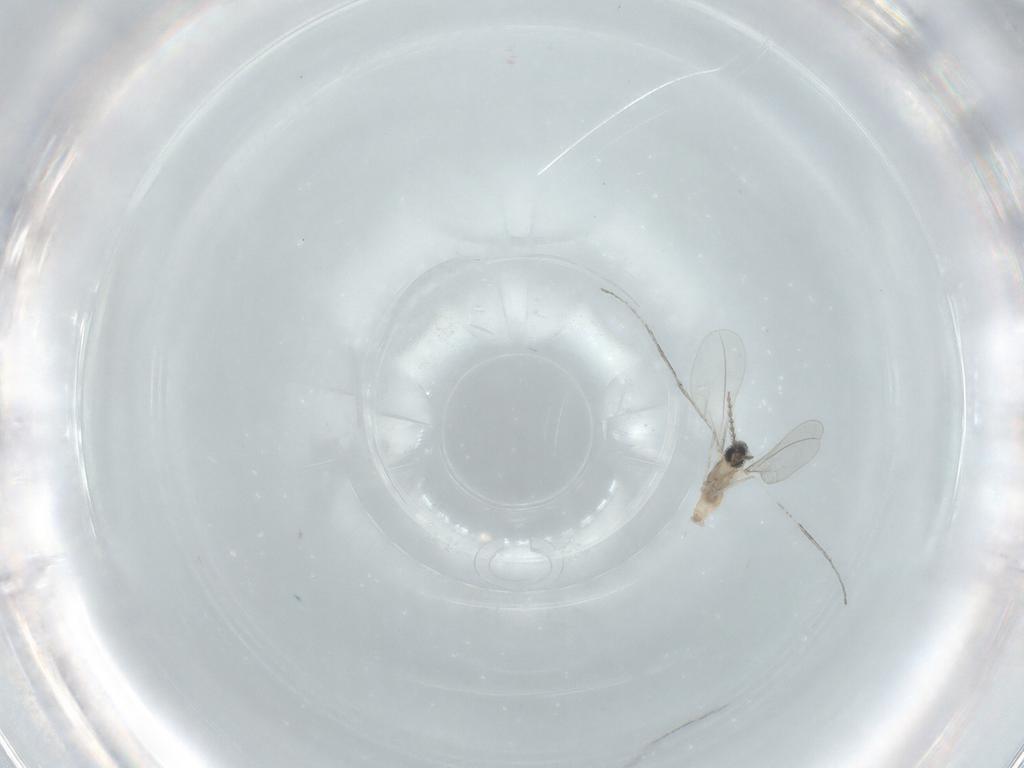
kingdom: Animalia
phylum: Arthropoda
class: Insecta
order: Diptera
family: Cecidomyiidae
